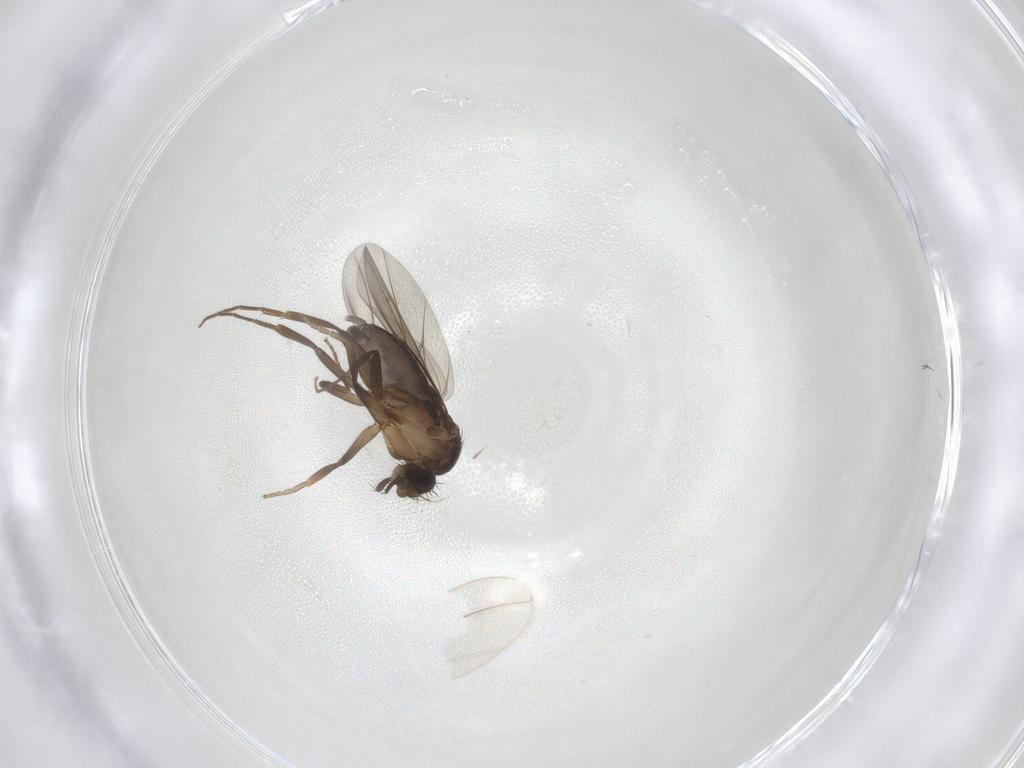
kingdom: Animalia
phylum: Arthropoda
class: Insecta
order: Diptera
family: Phoridae
